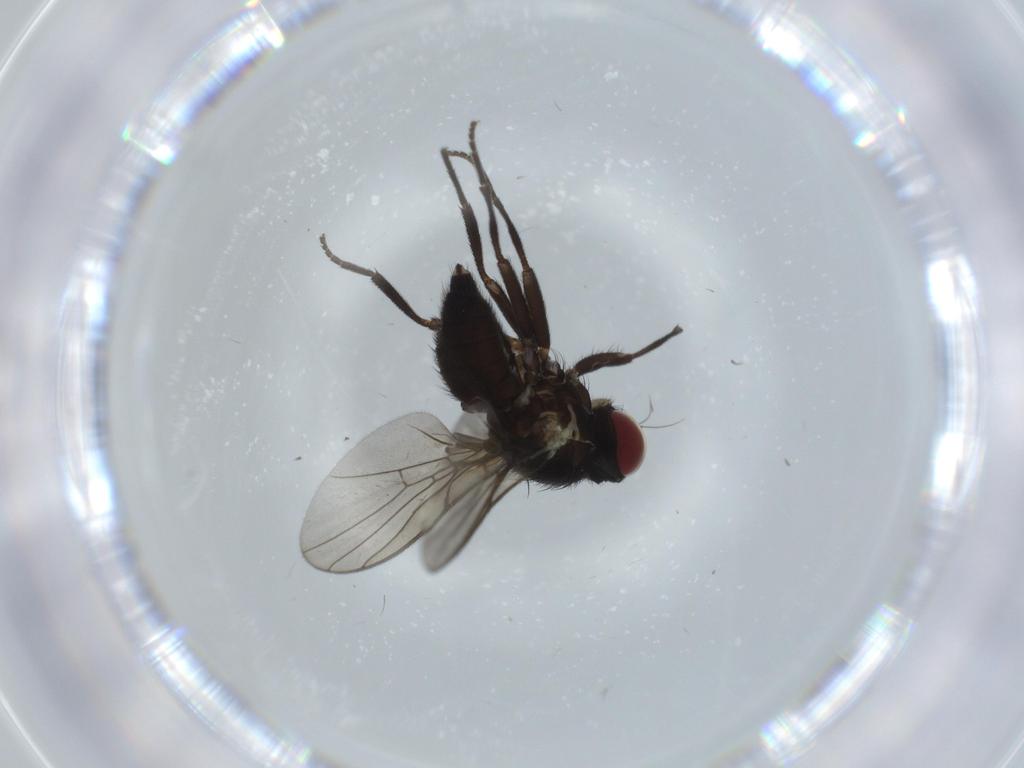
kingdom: Animalia
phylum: Arthropoda
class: Insecta
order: Diptera
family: Agromyzidae
